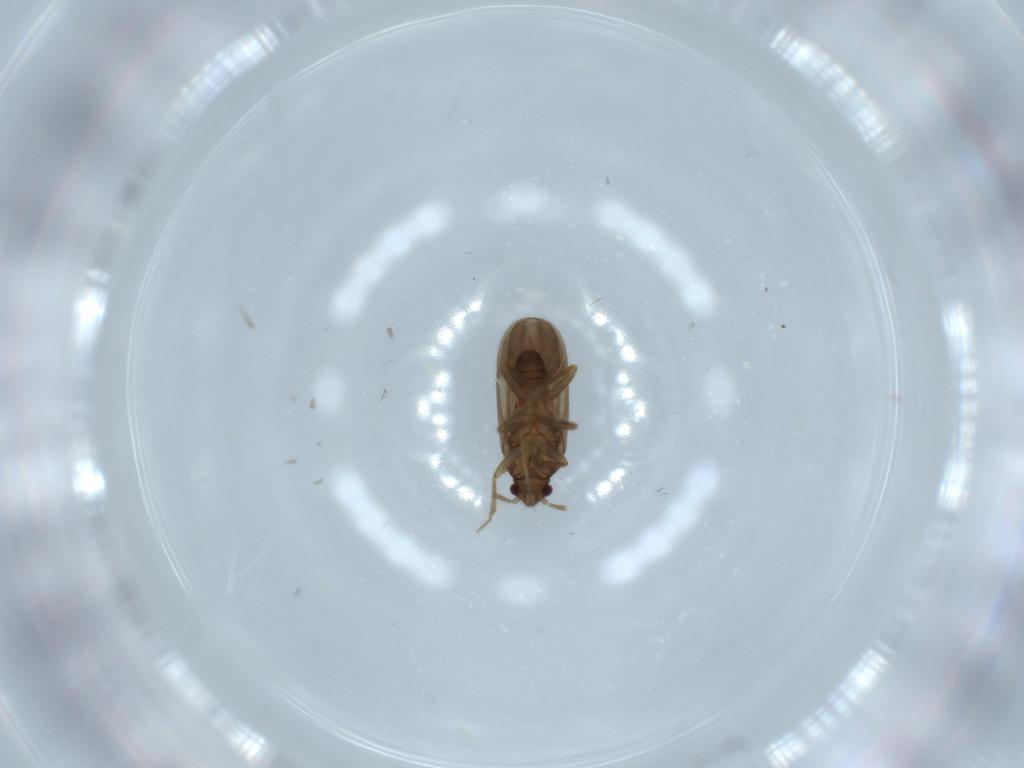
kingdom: Animalia
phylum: Arthropoda
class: Insecta
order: Hemiptera
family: Ceratocombidae
